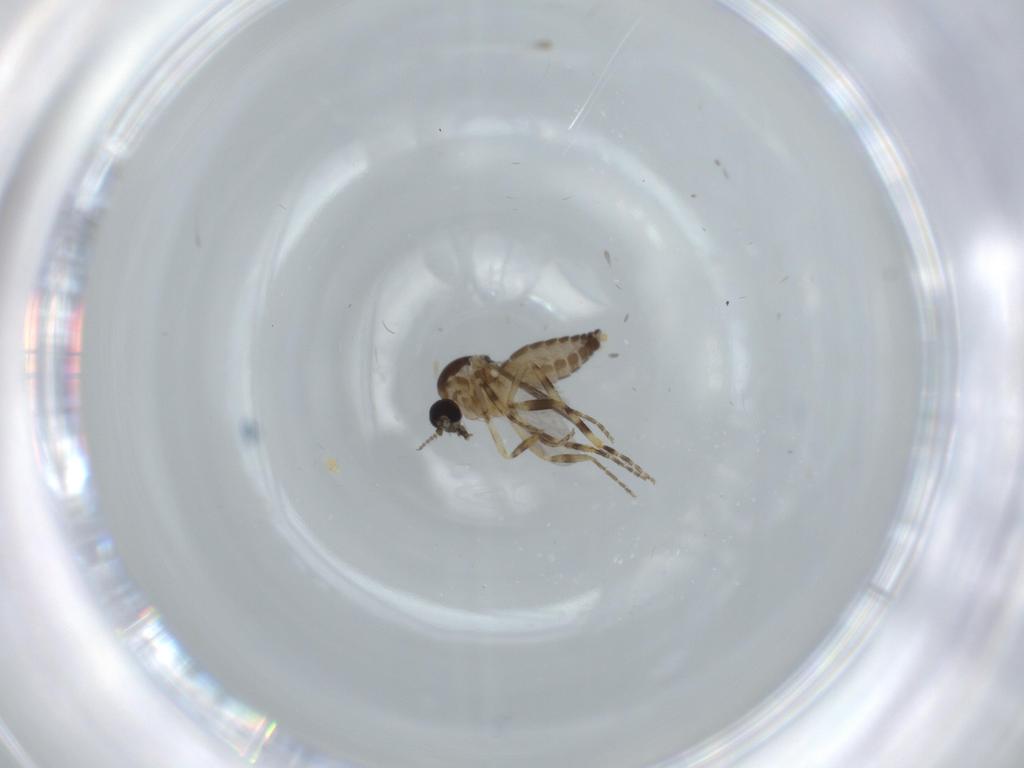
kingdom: Animalia
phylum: Arthropoda
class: Insecta
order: Diptera
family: Ceratopogonidae
